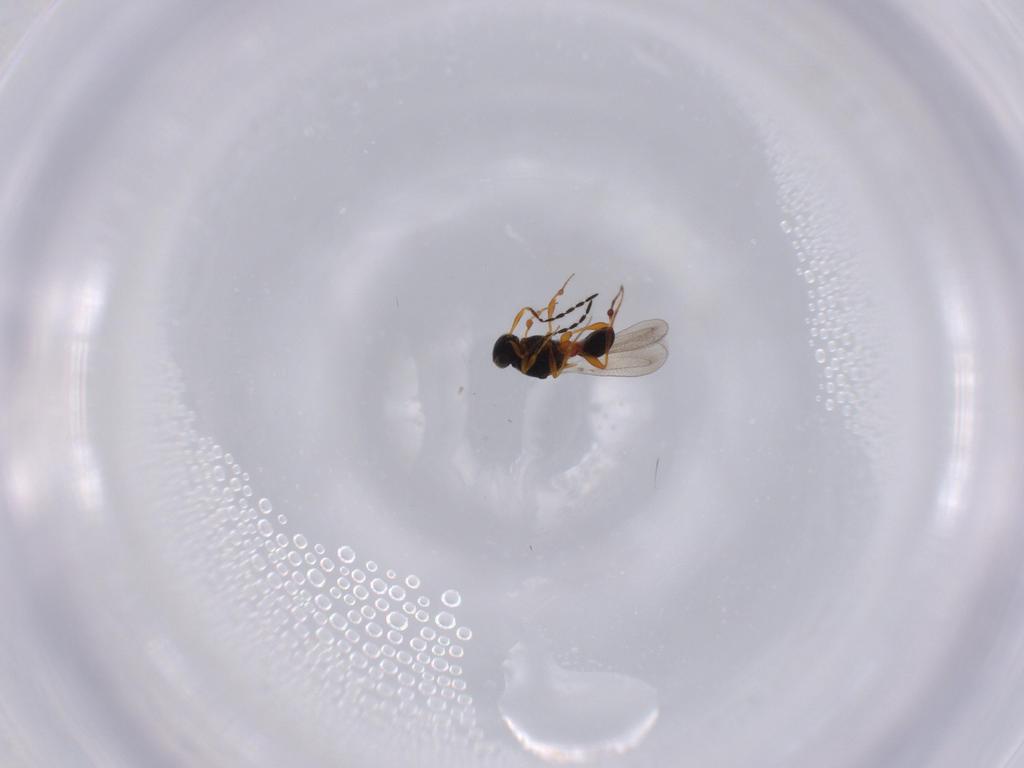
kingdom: Animalia
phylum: Arthropoda
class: Insecta
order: Hymenoptera
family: Platygastridae
